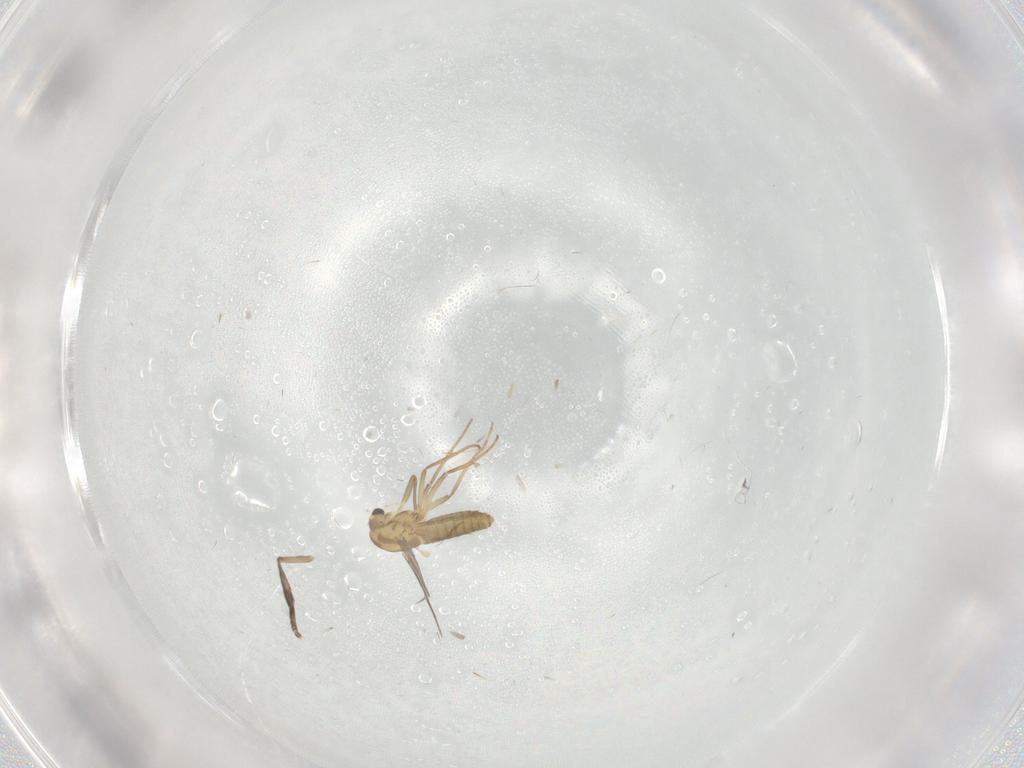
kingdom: Animalia
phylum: Arthropoda
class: Insecta
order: Diptera
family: Chironomidae
